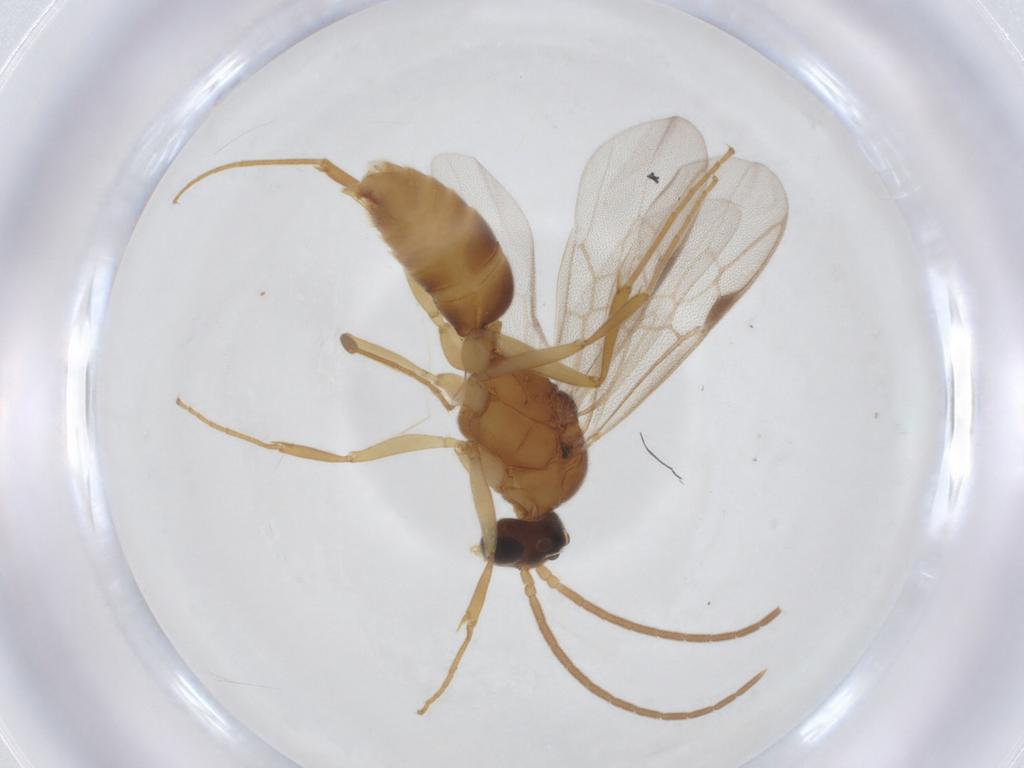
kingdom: Animalia
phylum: Arthropoda
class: Insecta
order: Hymenoptera
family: Formicidae
